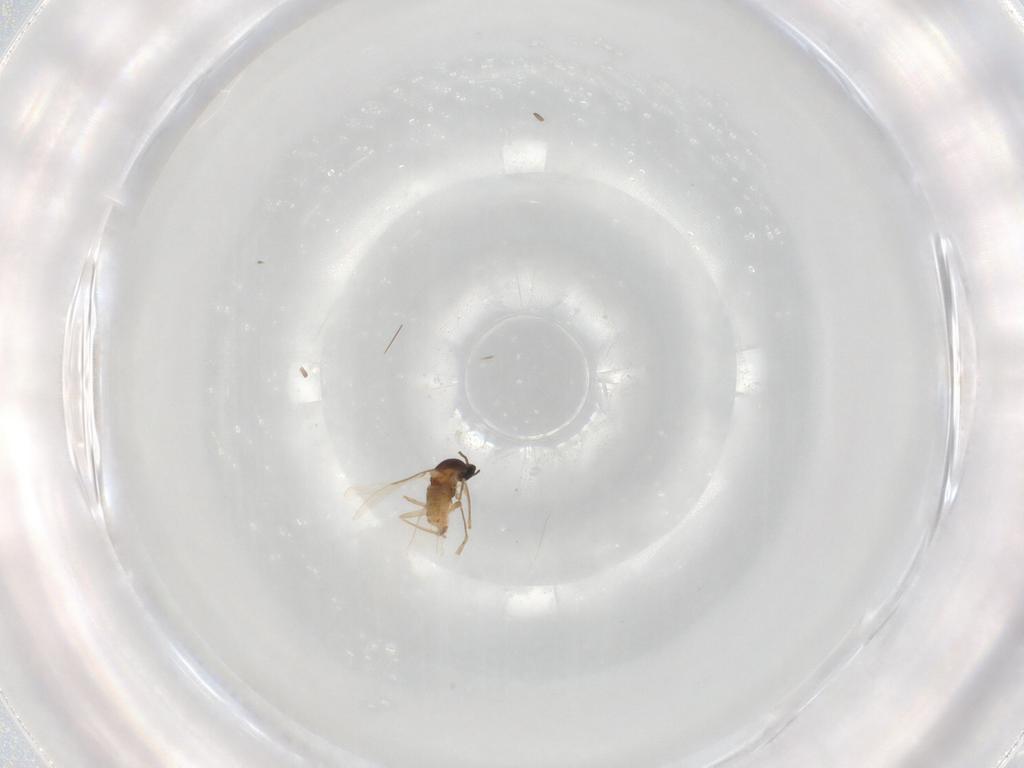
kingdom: Animalia
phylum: Arthropoda
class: Insecta
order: Diptera
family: Cecidomyiidae
